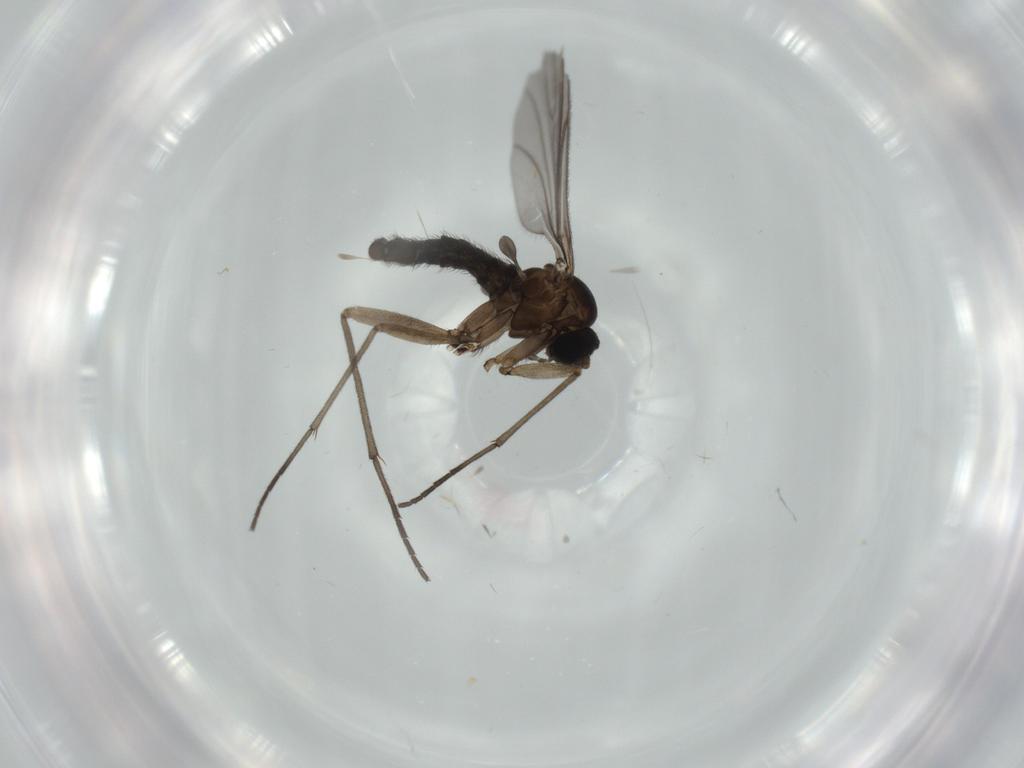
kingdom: Animalia
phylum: Arthropoda
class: Insecta
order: Diptera
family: Sciaridae
